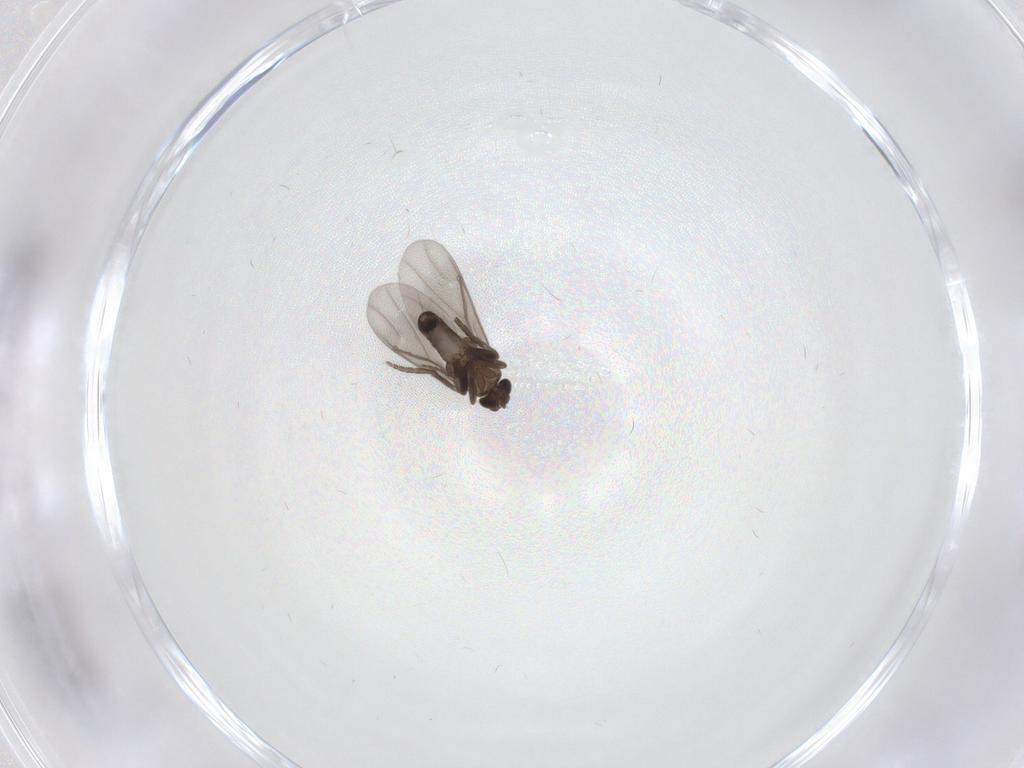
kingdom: Animalia
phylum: Arthropoda
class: Insecta
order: Diptera
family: Phoridae
